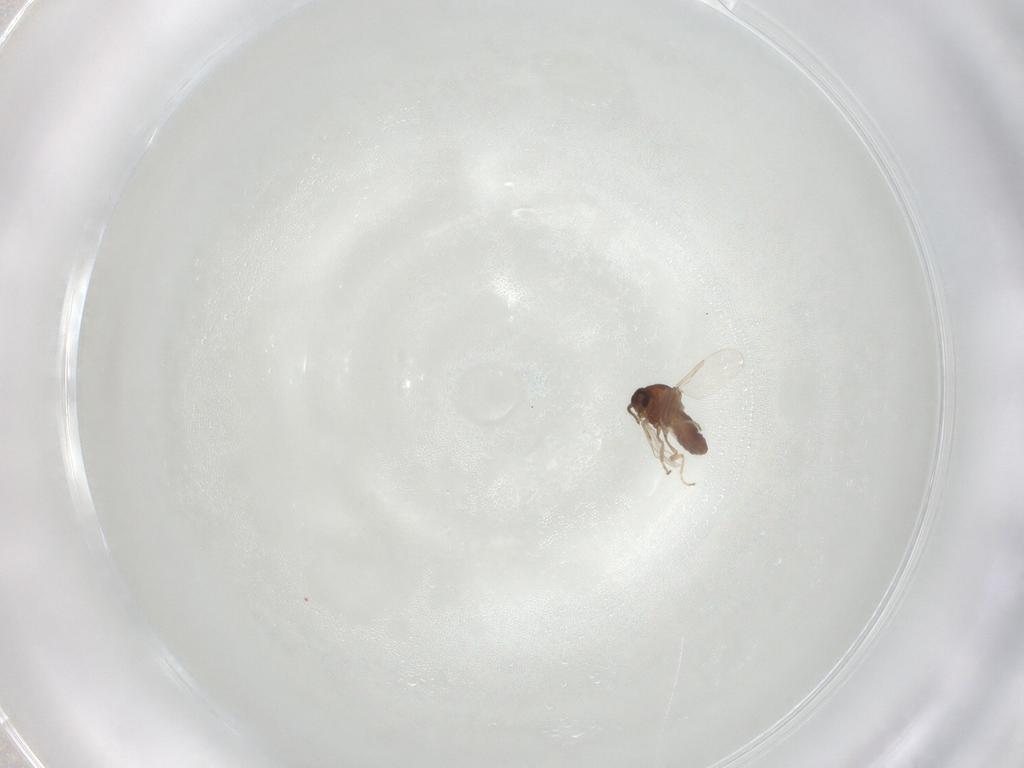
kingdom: Animalia
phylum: Arthropoda
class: Insecta
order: Diptera
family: Ceratopogonidae
